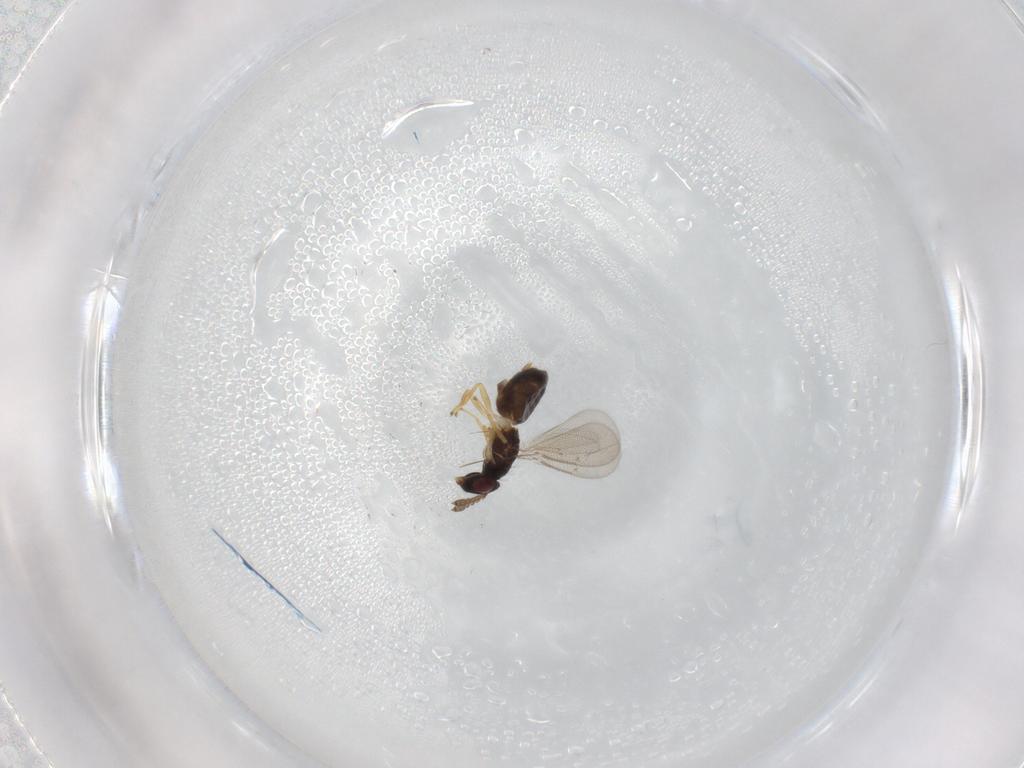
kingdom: Animalia
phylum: Arthropoda
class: Insecta
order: Hymenoptera
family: Eulophidae
